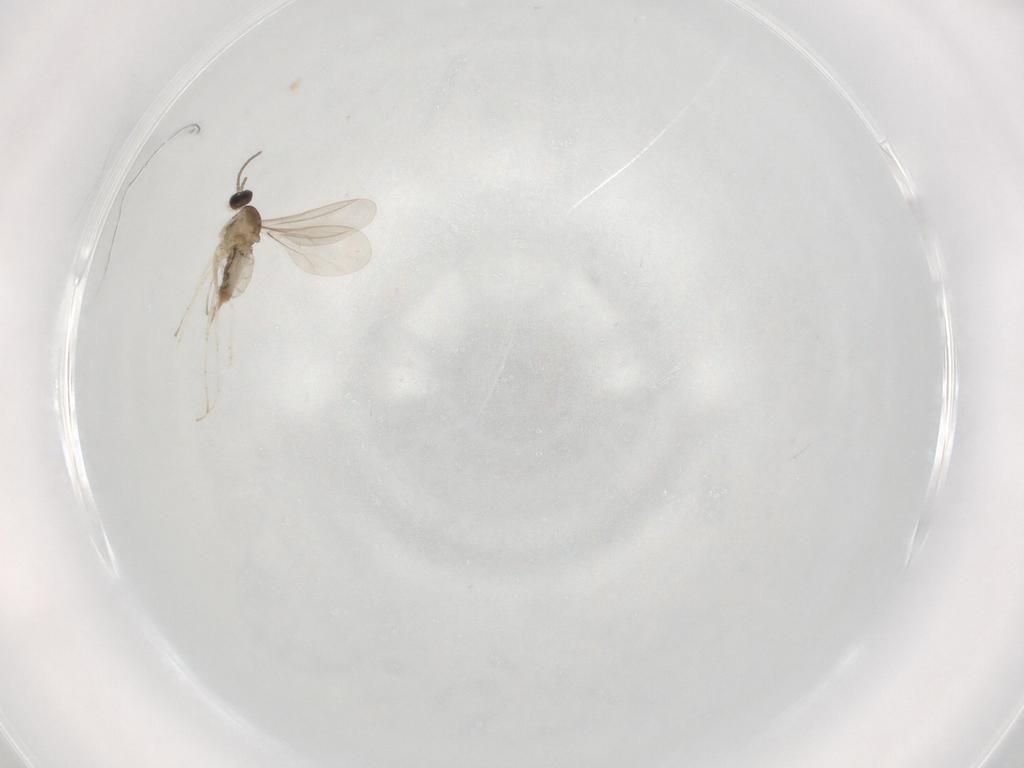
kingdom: Animalia
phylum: Arthropoda
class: Insecta
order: Diptera
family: Cecidomyiidae
